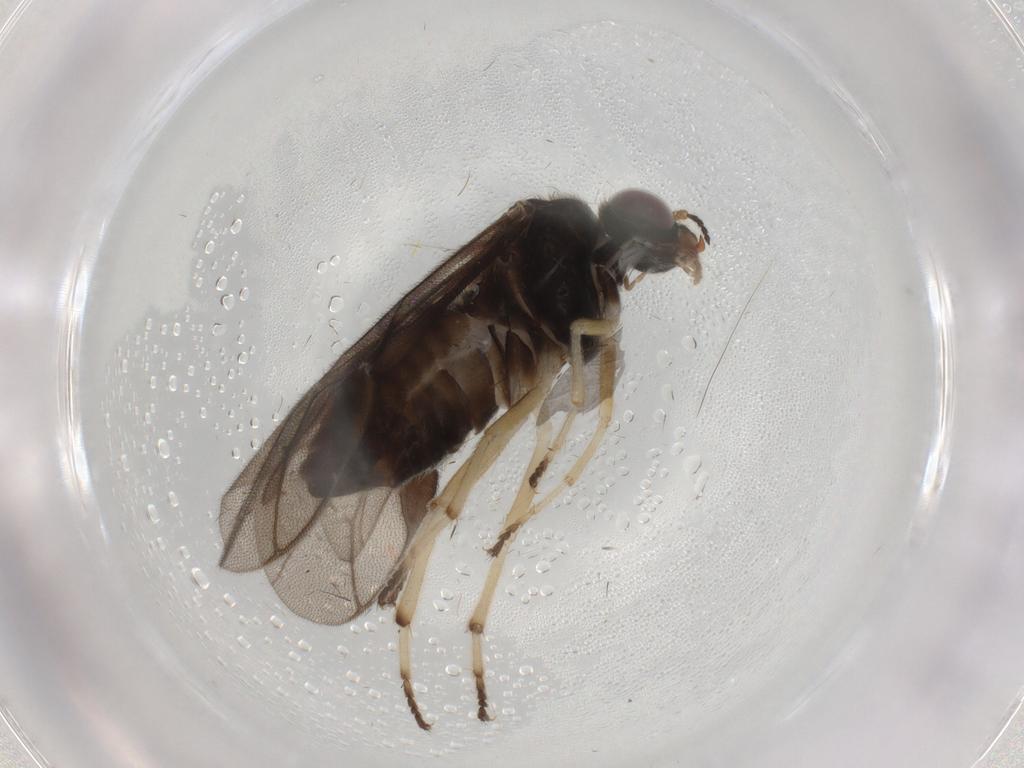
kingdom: Animalia
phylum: Arthropoda
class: Insecta
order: Diptera
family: Sciaridae
